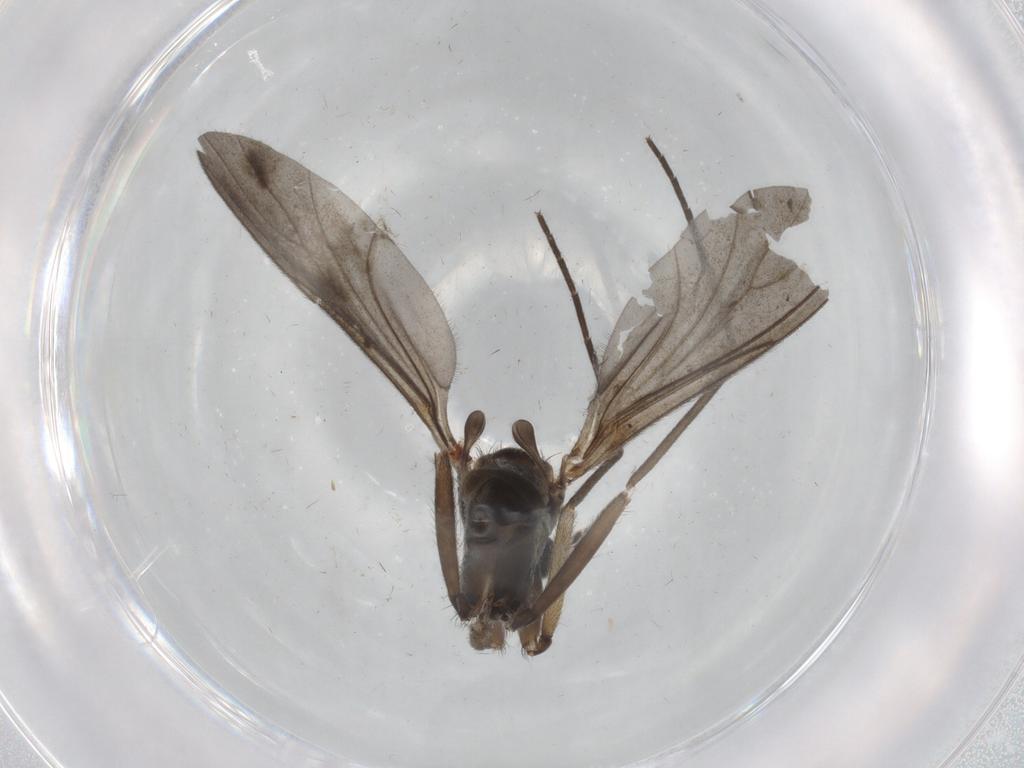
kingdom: Animalia
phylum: Arthropoda
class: Insecta
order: Diptera
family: Sciaridae
